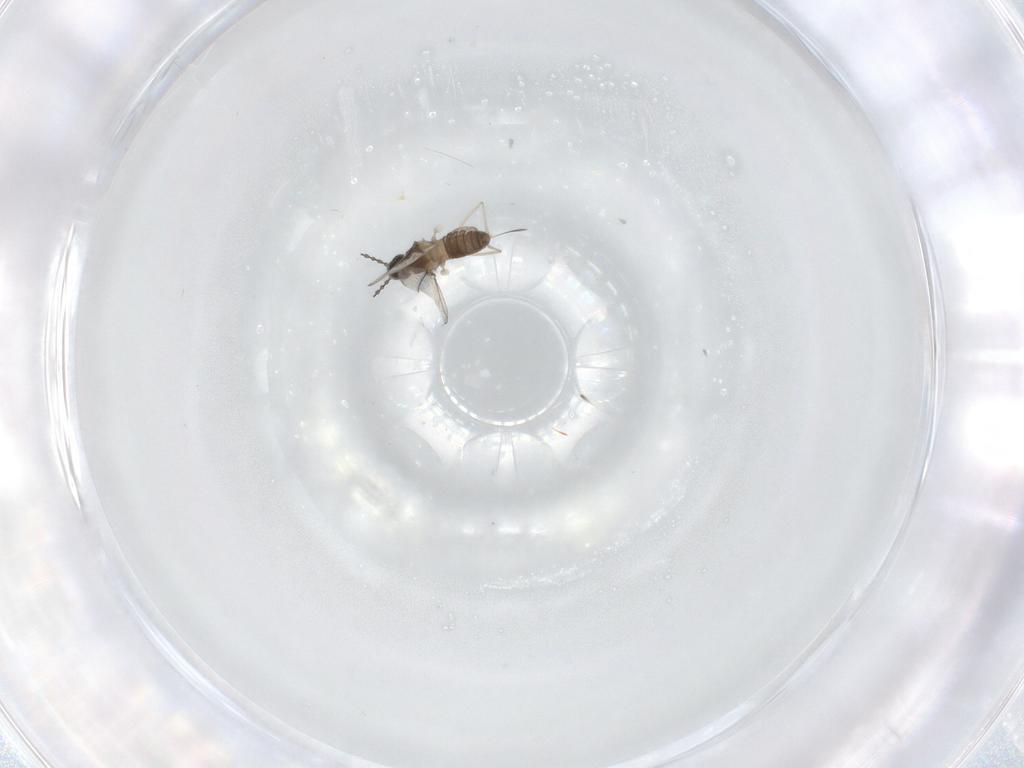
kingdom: Animalia
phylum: Arthropoda
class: Insecta
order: Diptera
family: Cecidomyiidae
